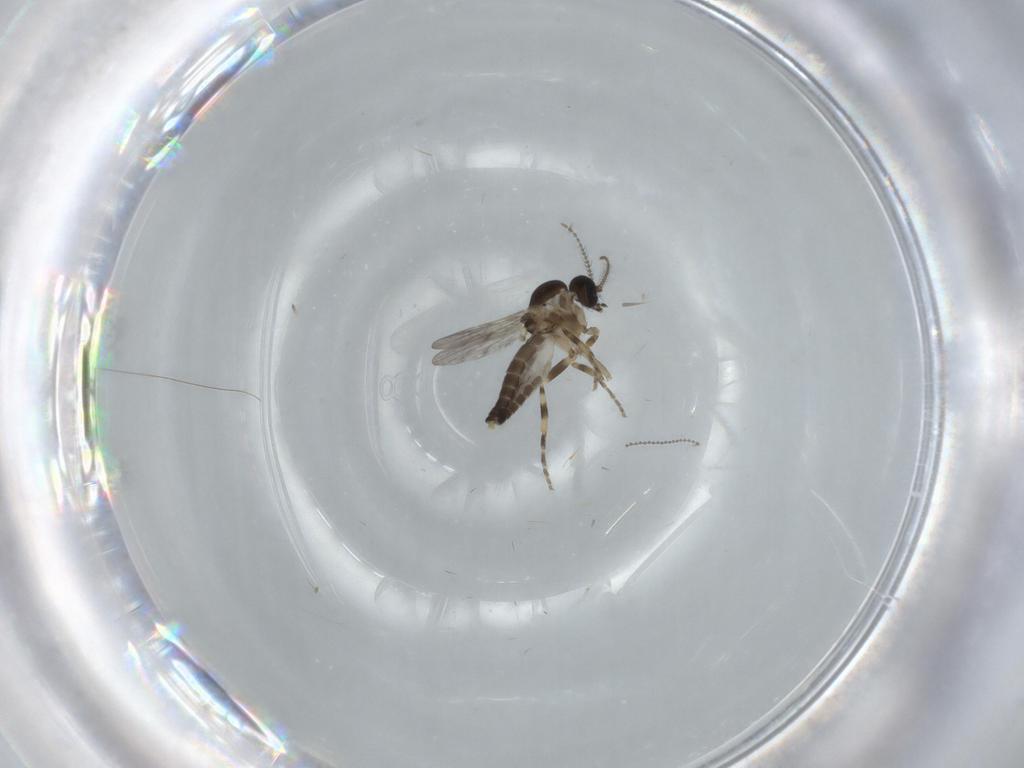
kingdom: Animalia
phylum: Arthropoda
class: Insecta
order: Diptera
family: Cecidomyiidae
